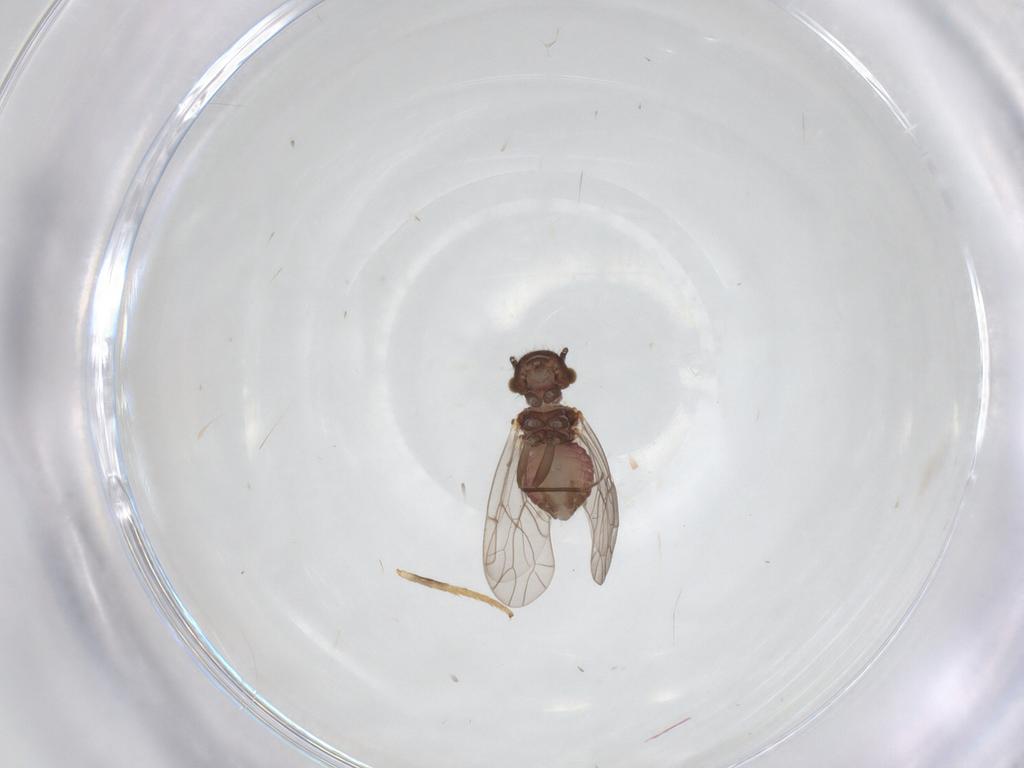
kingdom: Animalia
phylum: Arthropoda
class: Insecta
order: Psocodea
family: Ectopsocidae
